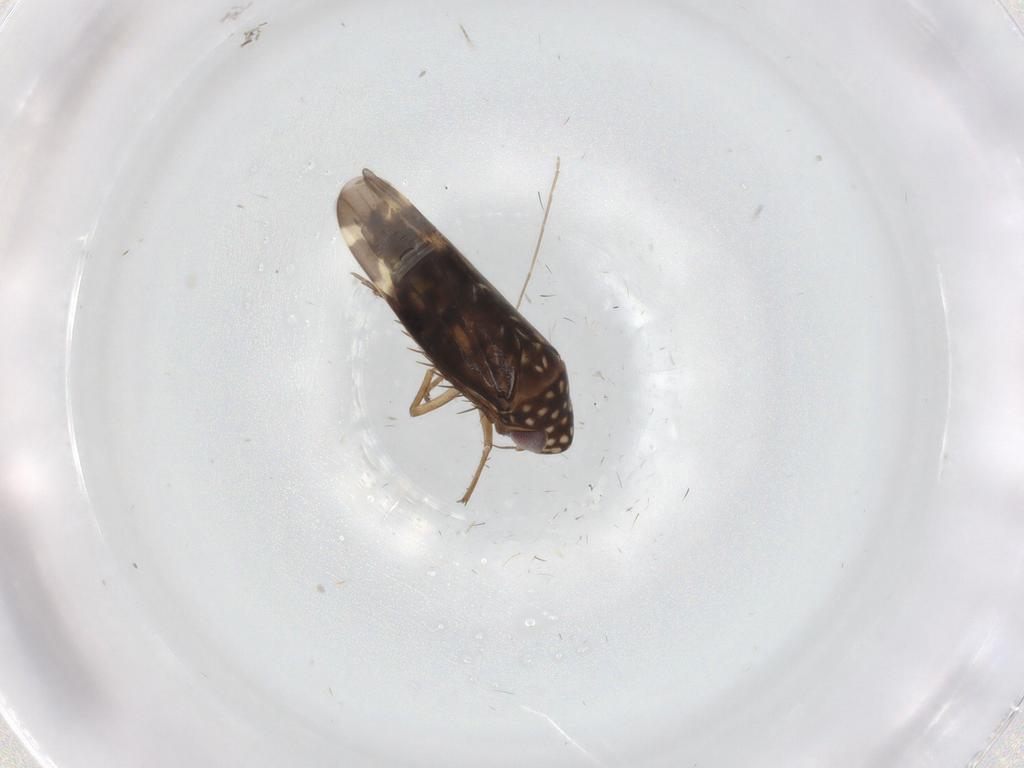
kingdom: Animalia
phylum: Arthropoda
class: Insecta
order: Hemiptera
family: Cicadellidae
